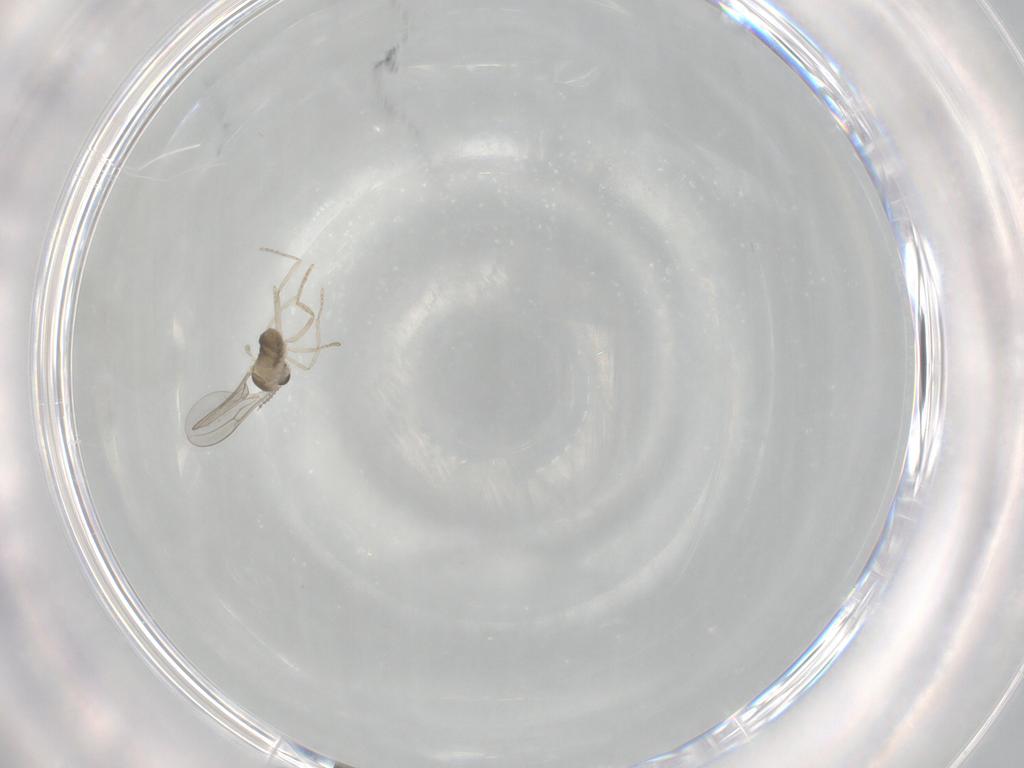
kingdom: Animalia
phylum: Arthropoda
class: Insecta
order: Diptera
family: Cecidomyiidae
